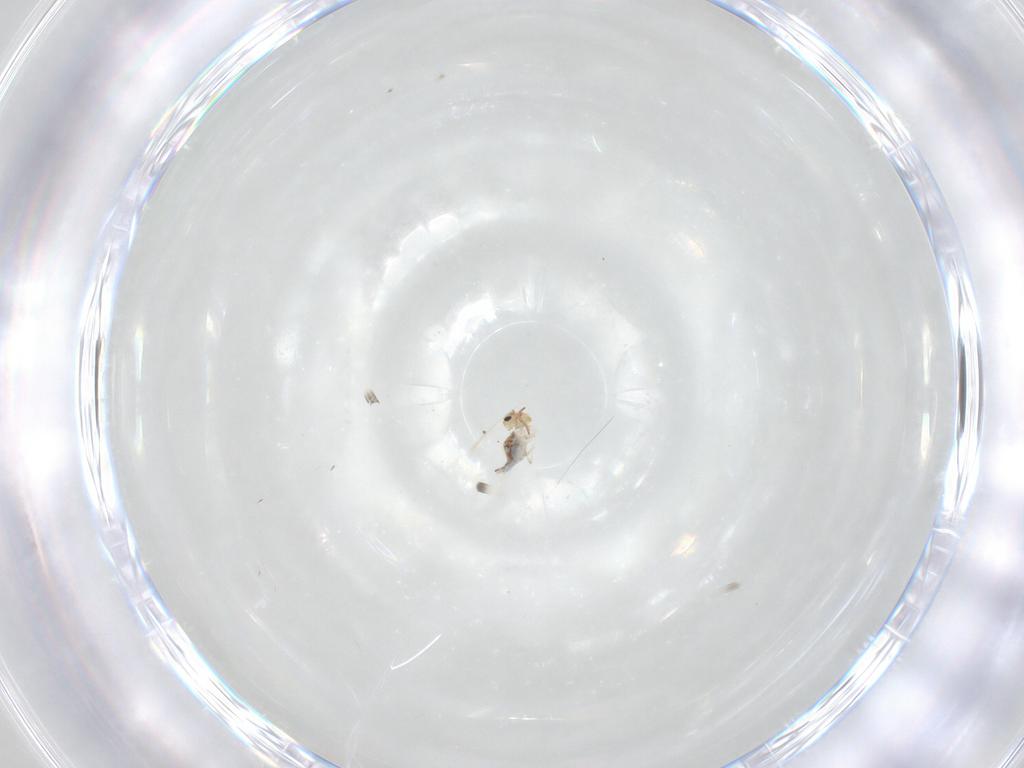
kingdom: Animalia
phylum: Arthropoda
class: Collembola
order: Symphypleona
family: Bourletiellidae
